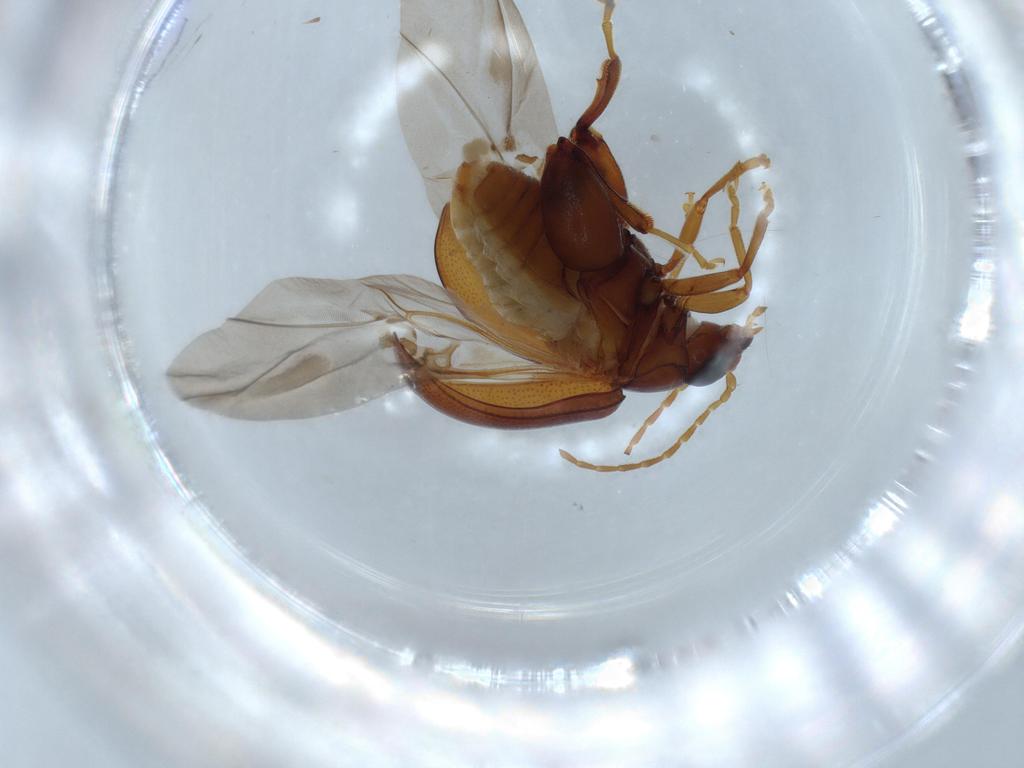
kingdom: Animalia
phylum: Arthropoda
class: Insecta
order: Coleoptera
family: Chrysomelidae
